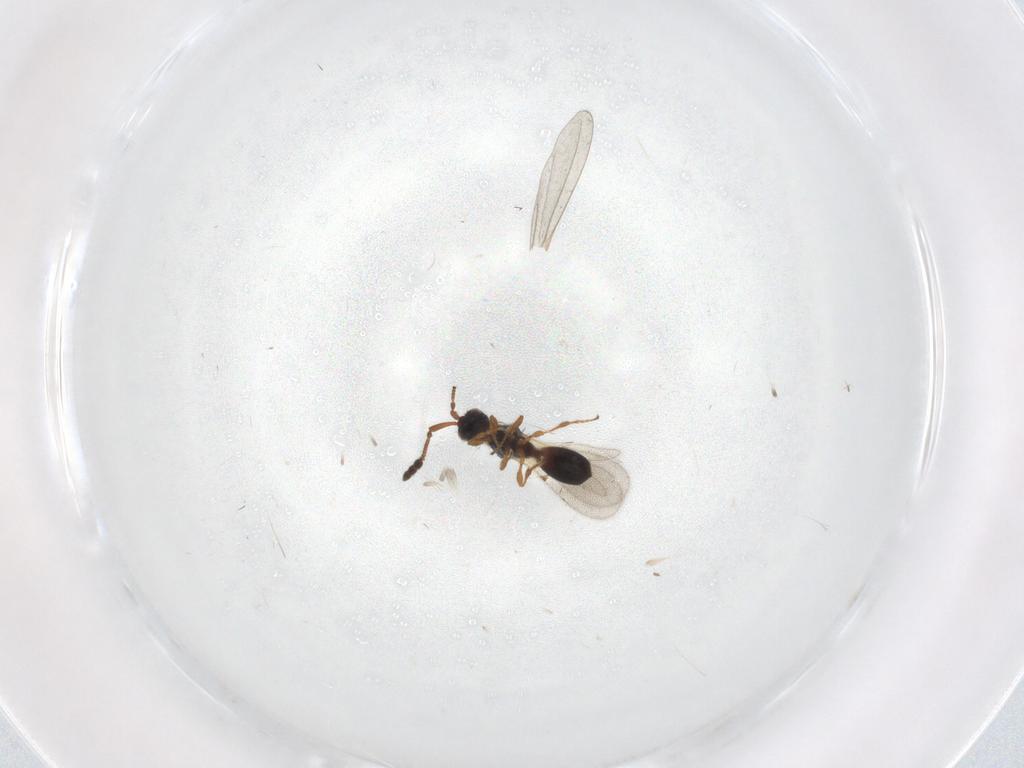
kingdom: Animalia
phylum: Arthropoda
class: Insecta
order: Hymenoptera
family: Diapriidae
